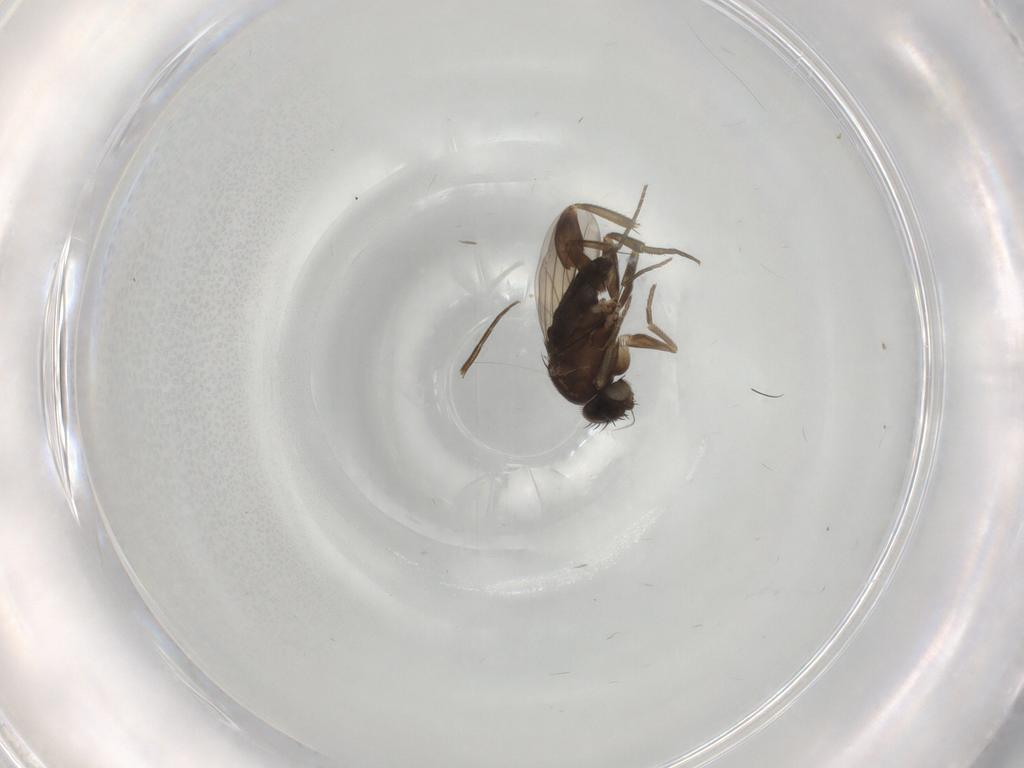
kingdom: Animalia
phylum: Arthropoda
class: Insecta
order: Diptera
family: Phoridae
